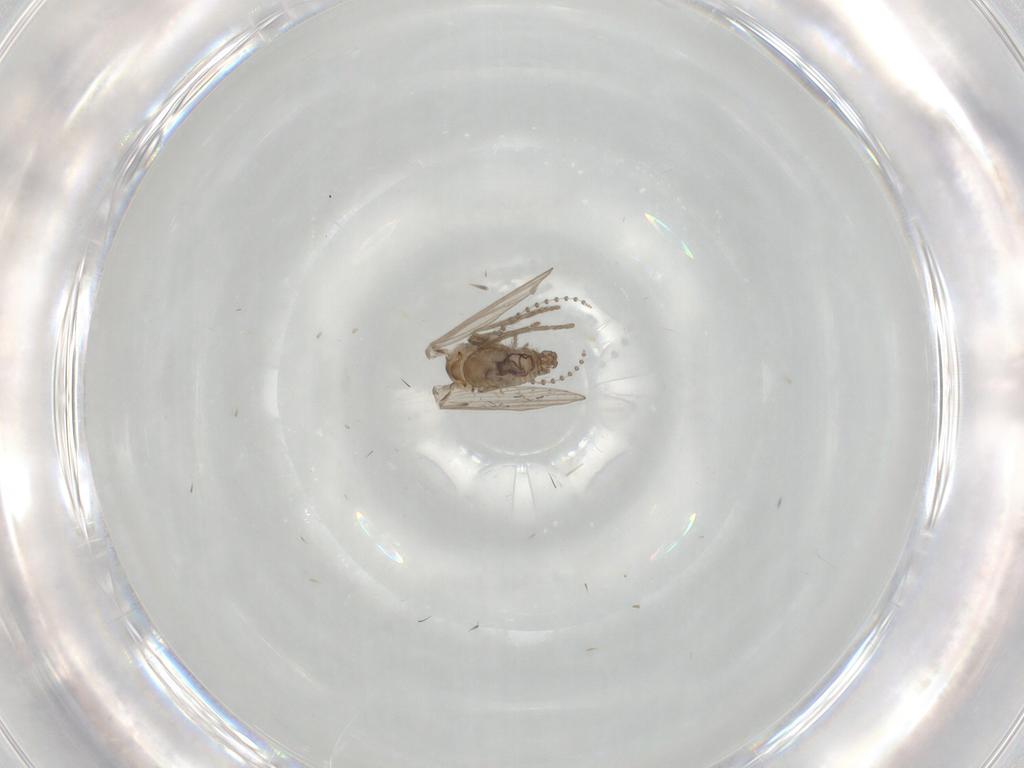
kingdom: Animalia
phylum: Arthropoda
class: Insecta
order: Diptera
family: Psychodidae
